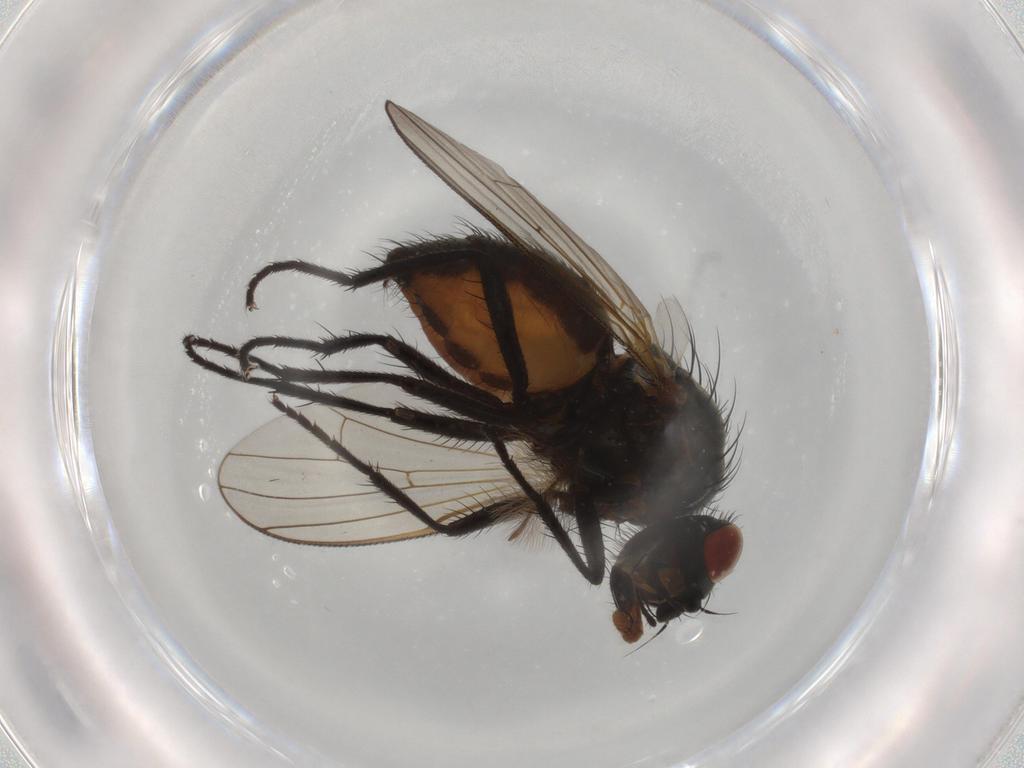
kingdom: Animalia
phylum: Arthropoda
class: Insecta
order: Diptera
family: Anthomyiidae
